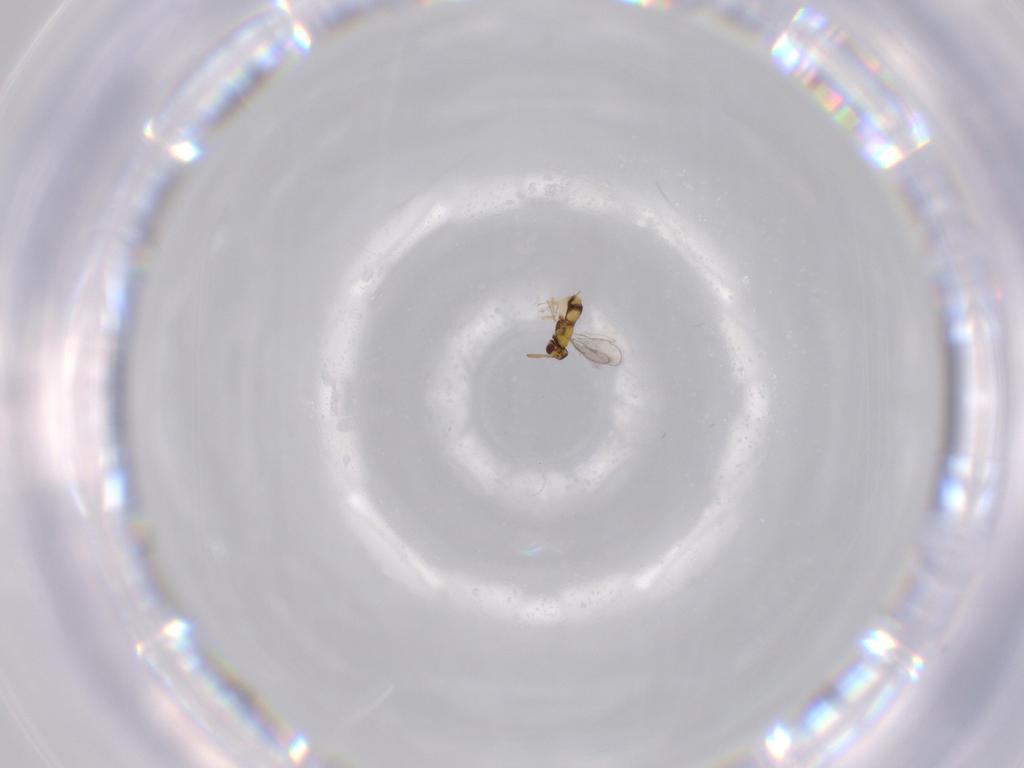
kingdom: Animalia
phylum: Arthropoda
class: Insecta
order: Hymenoptera
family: Aphelinidae
